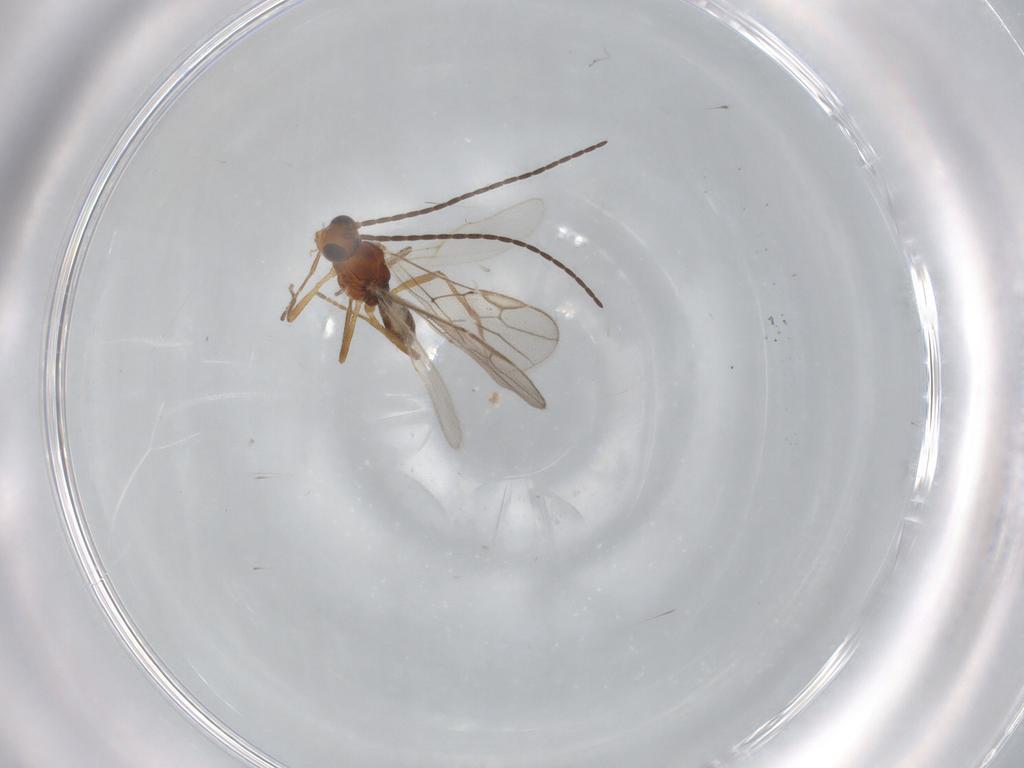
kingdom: Animalia
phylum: Arthropoda
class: Insecta
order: Hymenoptera
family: Braconidae
